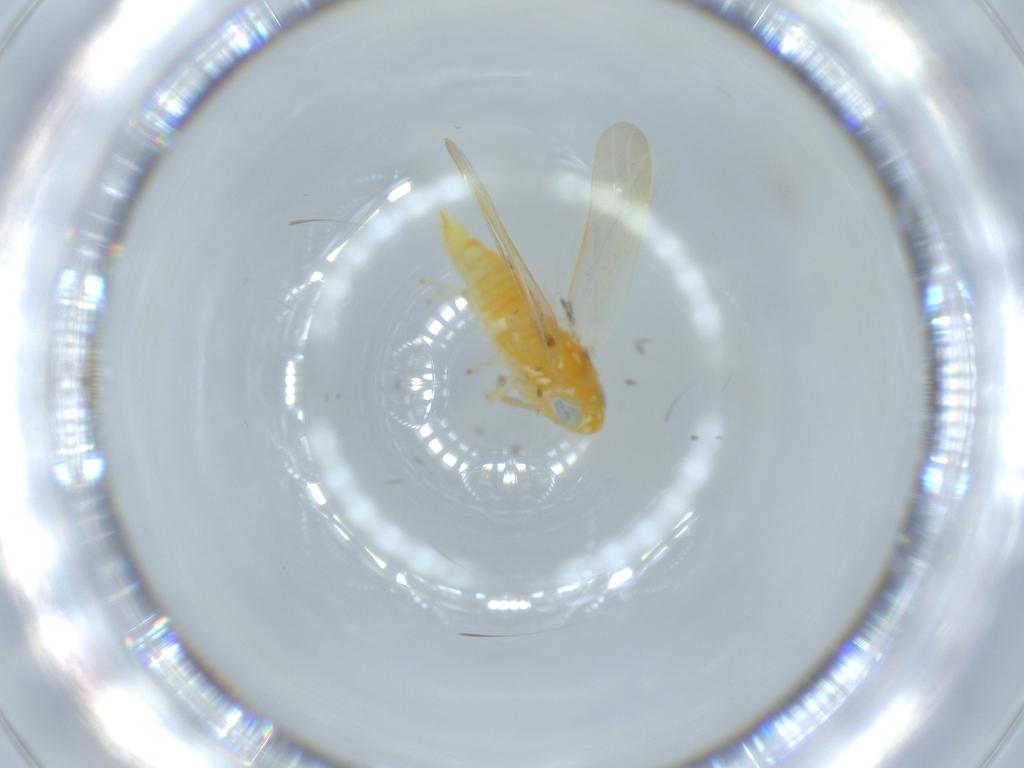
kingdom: Animalia
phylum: Arthropoda
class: Insecta
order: Hemiptera
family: Cicadellidae
